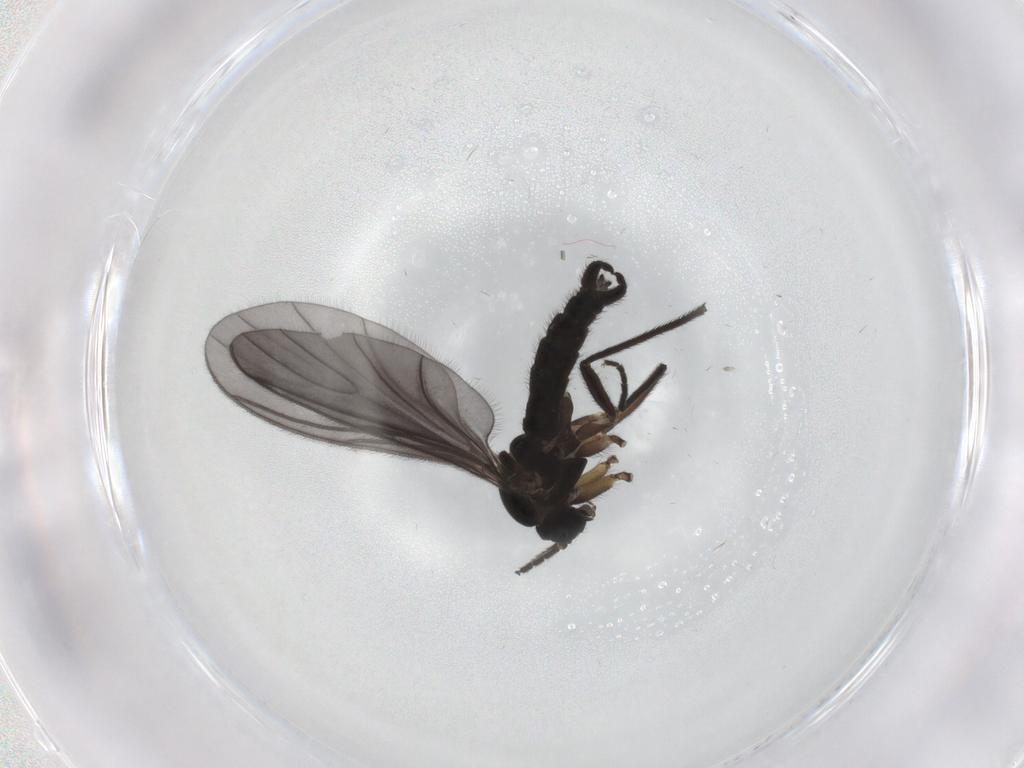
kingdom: Animalia
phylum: Arthropoda
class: Insecta
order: Diptera
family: Sciaridae
